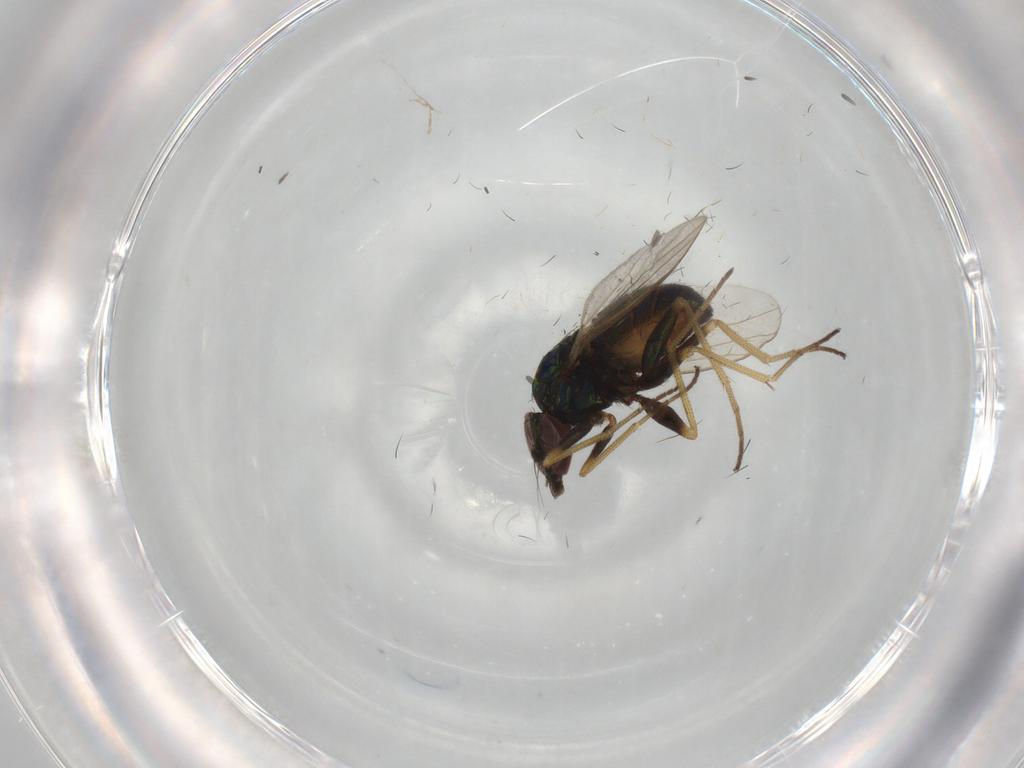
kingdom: Animalia
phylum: Arthropoda
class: Insecta
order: Diptera
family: Dolichopodidae
